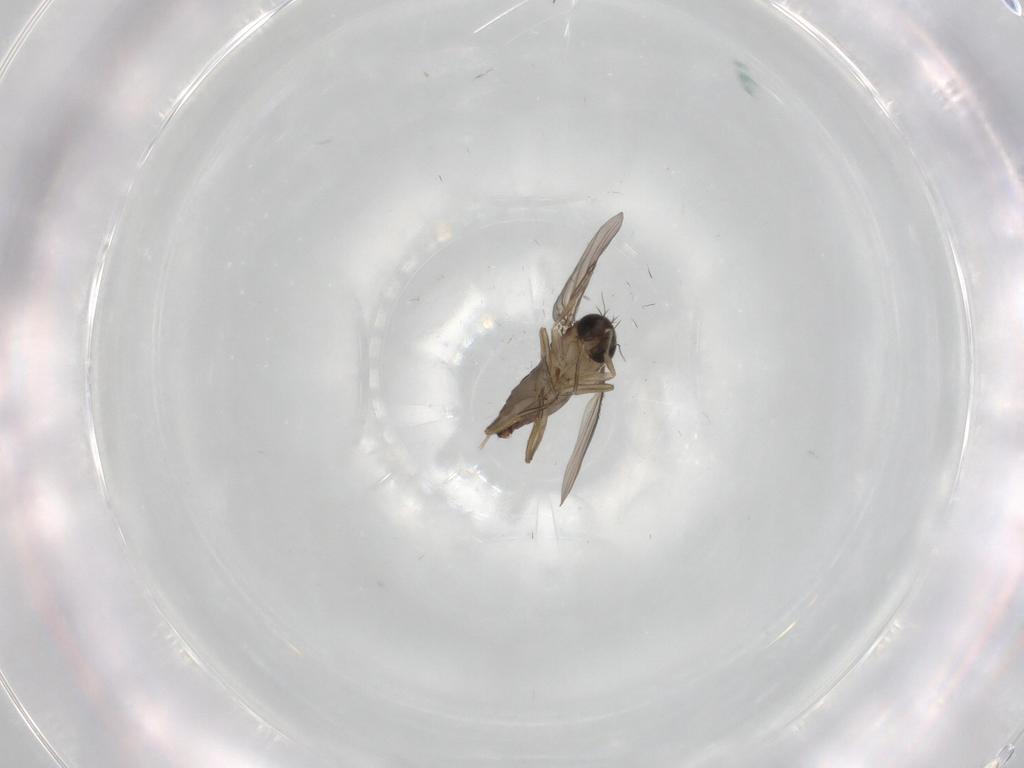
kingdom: Animalia
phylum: Arthropoda
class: Insecta
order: Diptera
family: Phoridae
